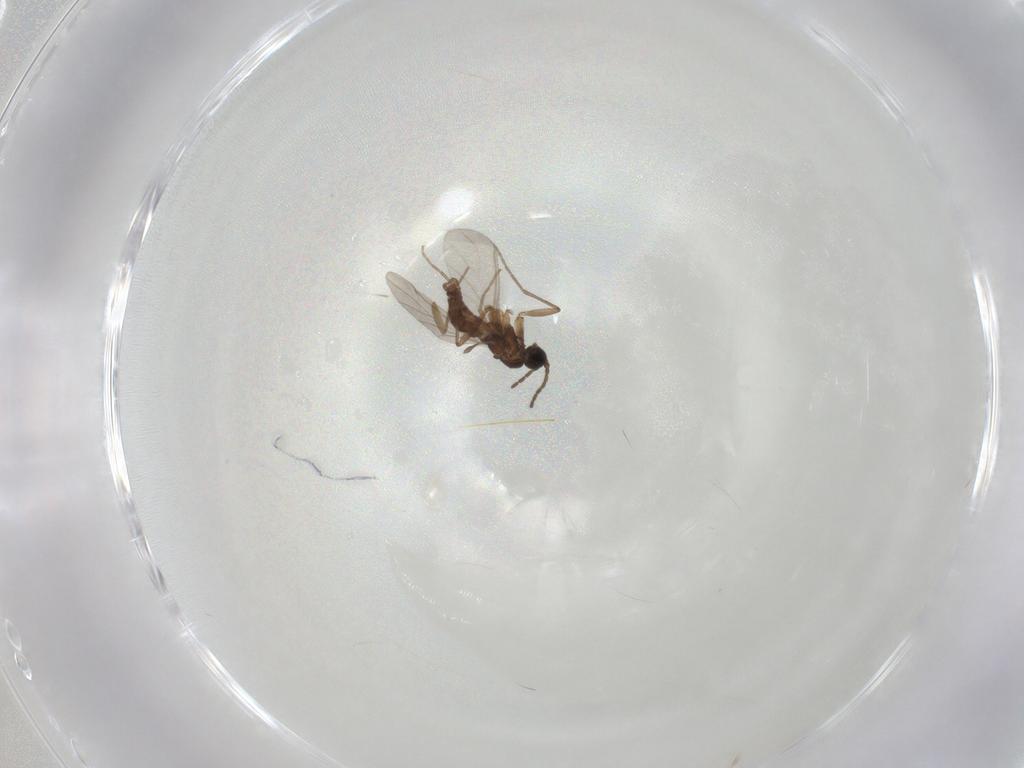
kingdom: Animalia
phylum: Arthropoda
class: Insecta
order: Diptera
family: Sciaridae
